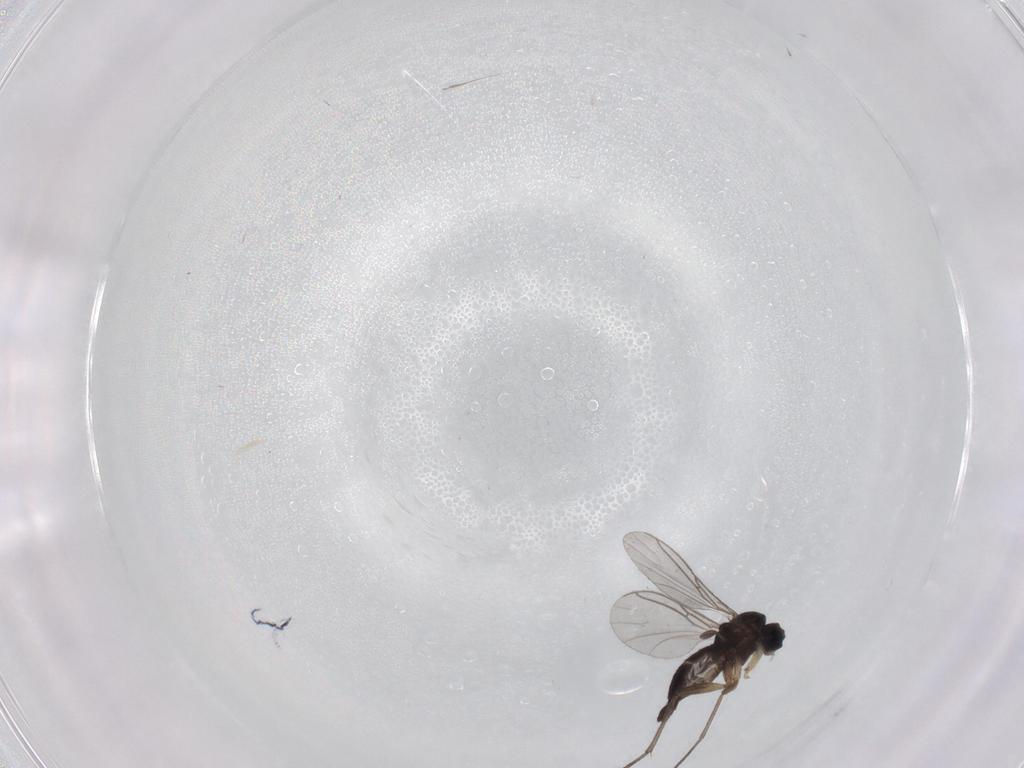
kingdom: Animalia
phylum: Arthropoda
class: Insecta
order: Diptera
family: Sciaridae
